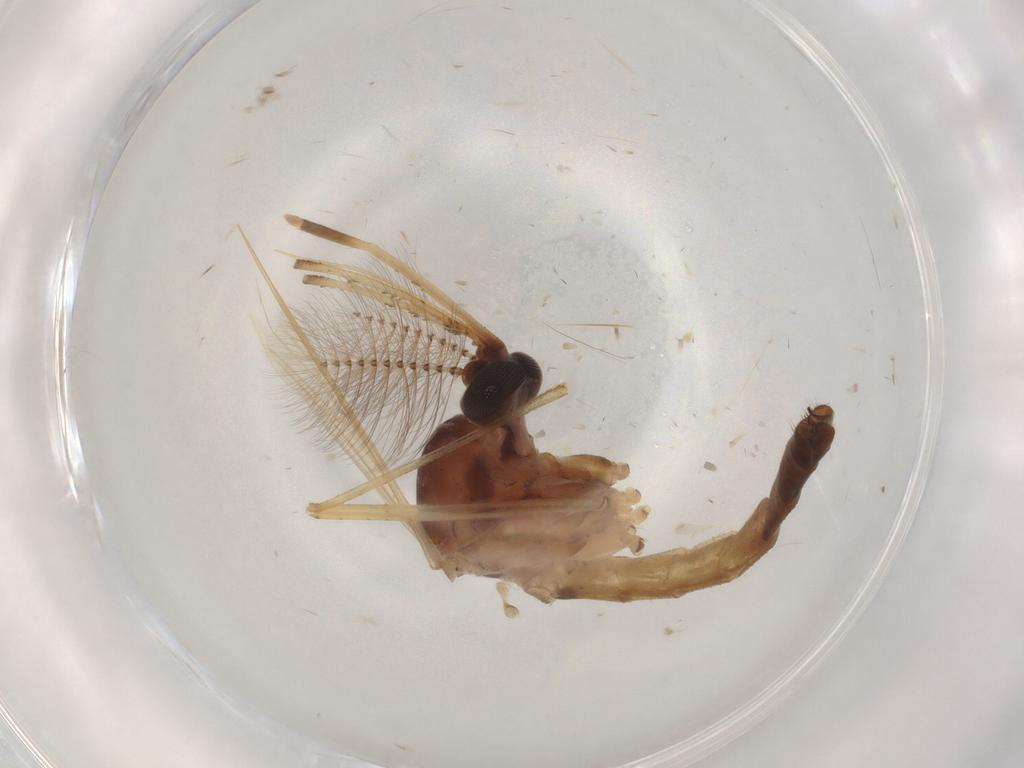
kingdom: Animalia
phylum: Arthropoda
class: Insecta
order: Diptera
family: Chironomidae
